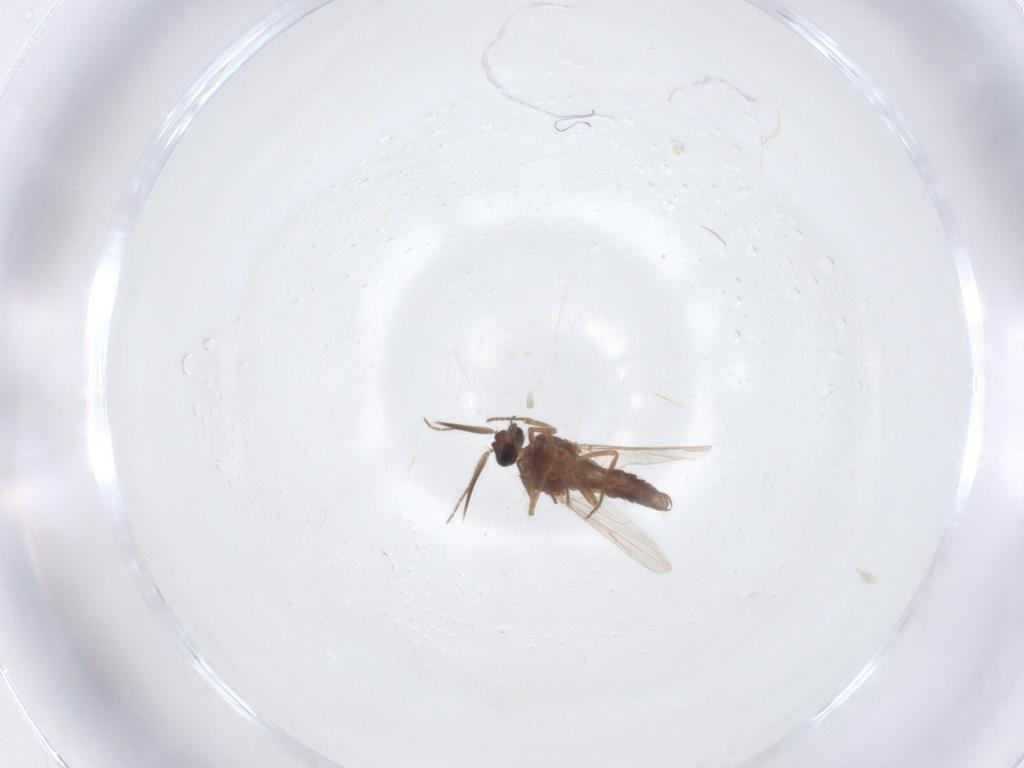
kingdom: Animalia
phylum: Arthropoda
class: Insecta
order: Diptera
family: Ceratopogonidae
